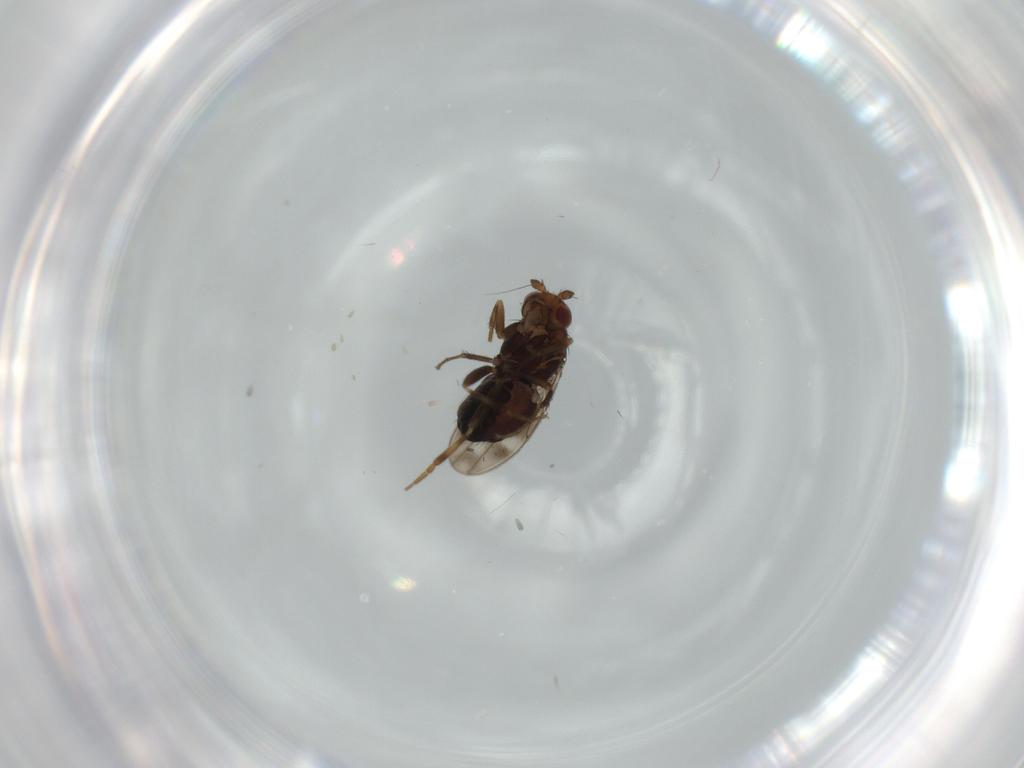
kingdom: Animalia
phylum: Arthropoda
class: Insecta
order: Diptera
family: Sphaeroceridae
